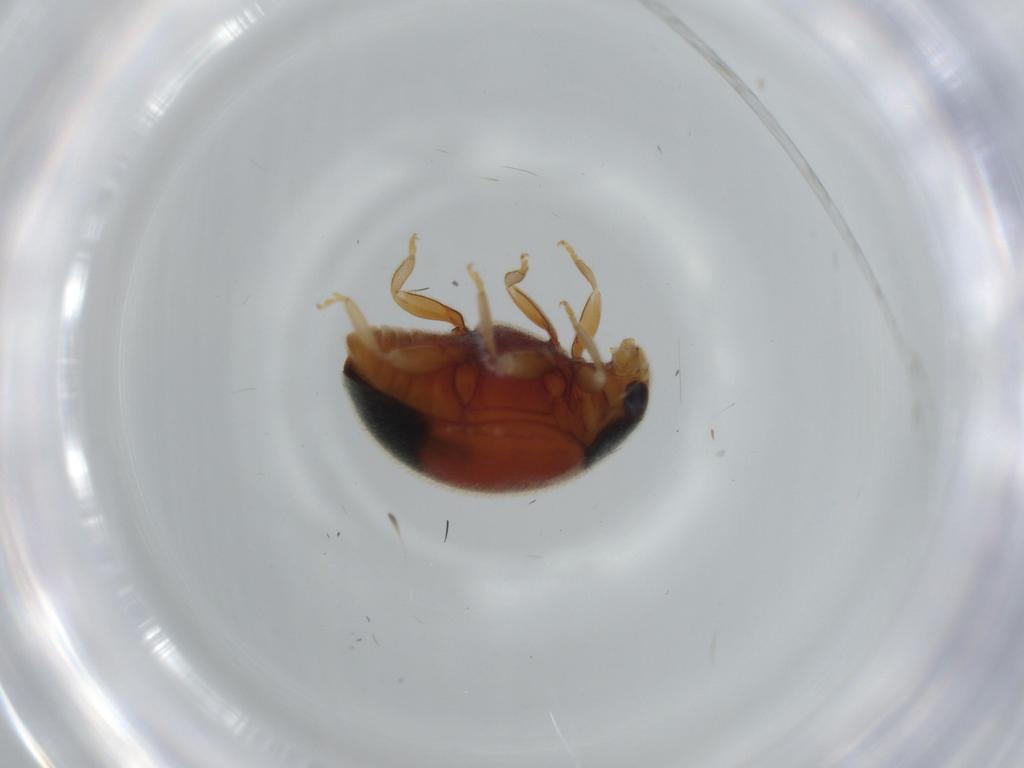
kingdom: Animalia
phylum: Arthropoda
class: Insecta
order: Coleoptera
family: Coccinellidae
